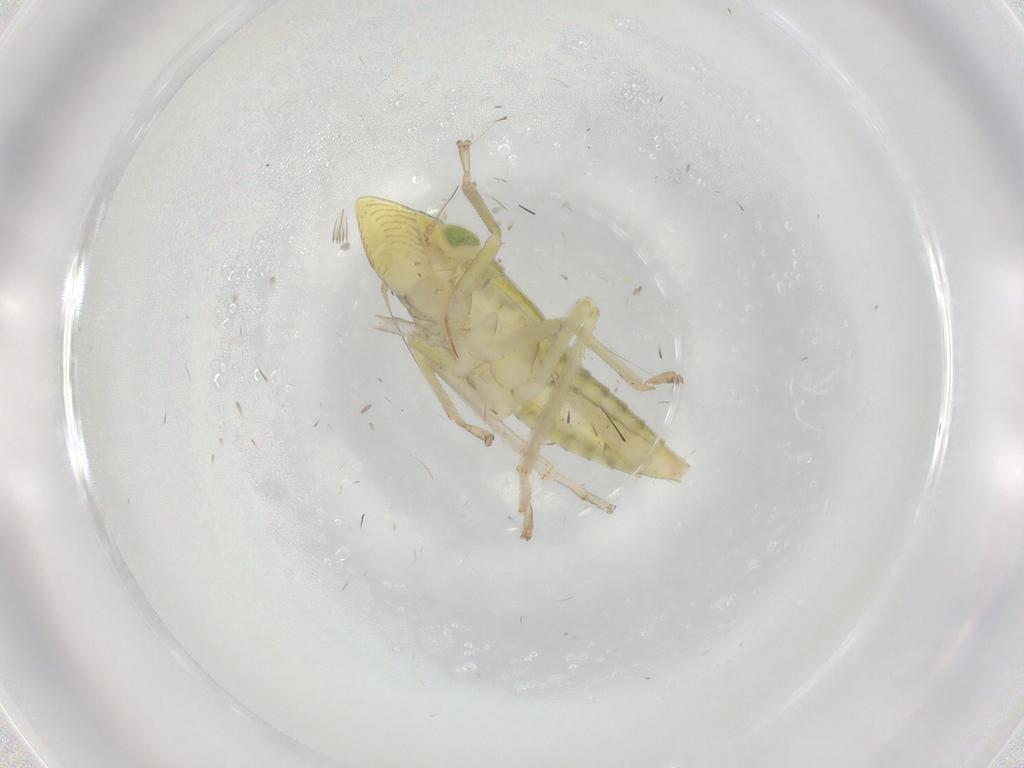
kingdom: Animalia
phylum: Arthropoda
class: Insecta
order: Hemiptera
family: Cicadellidae
